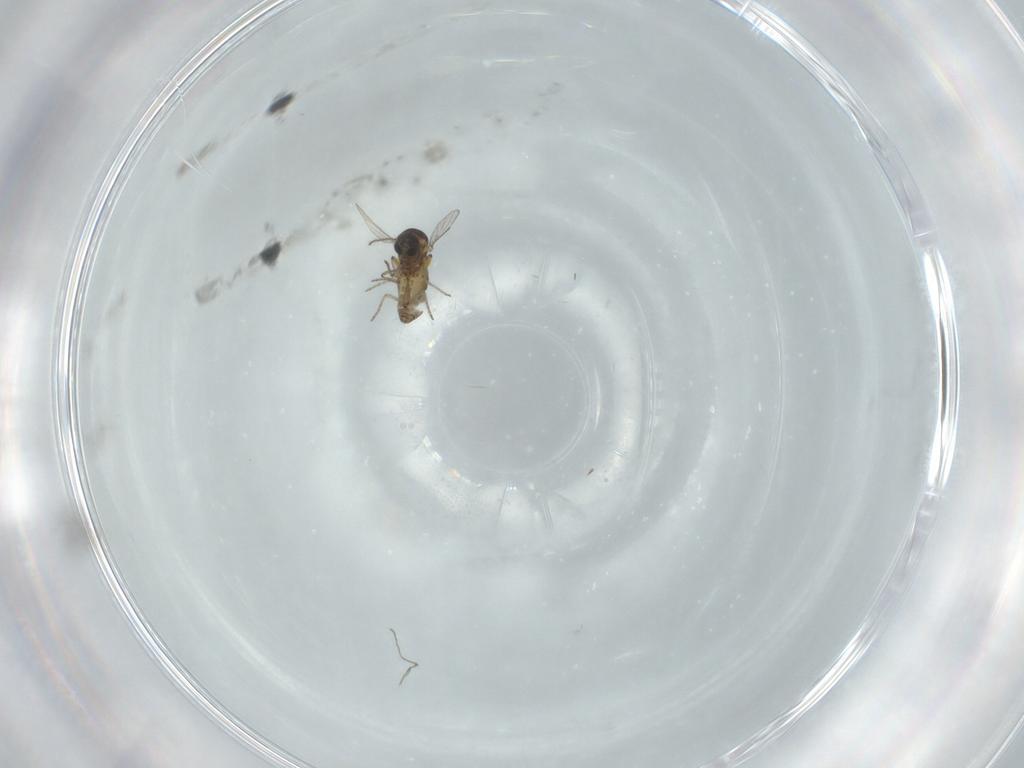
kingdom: Animalia
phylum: Arthropoda
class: Insecta
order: Diptera
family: Ceratopogonidae
